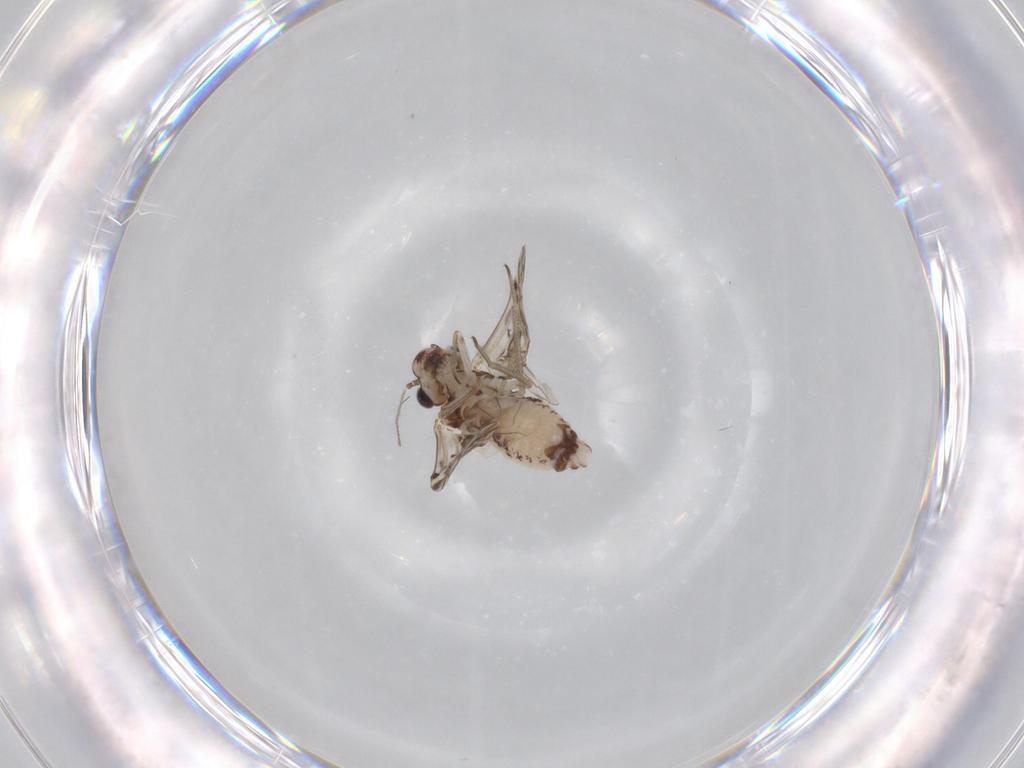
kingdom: Animalia
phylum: Arthropoda
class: Insecta
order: Psocodea
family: Psocidae
